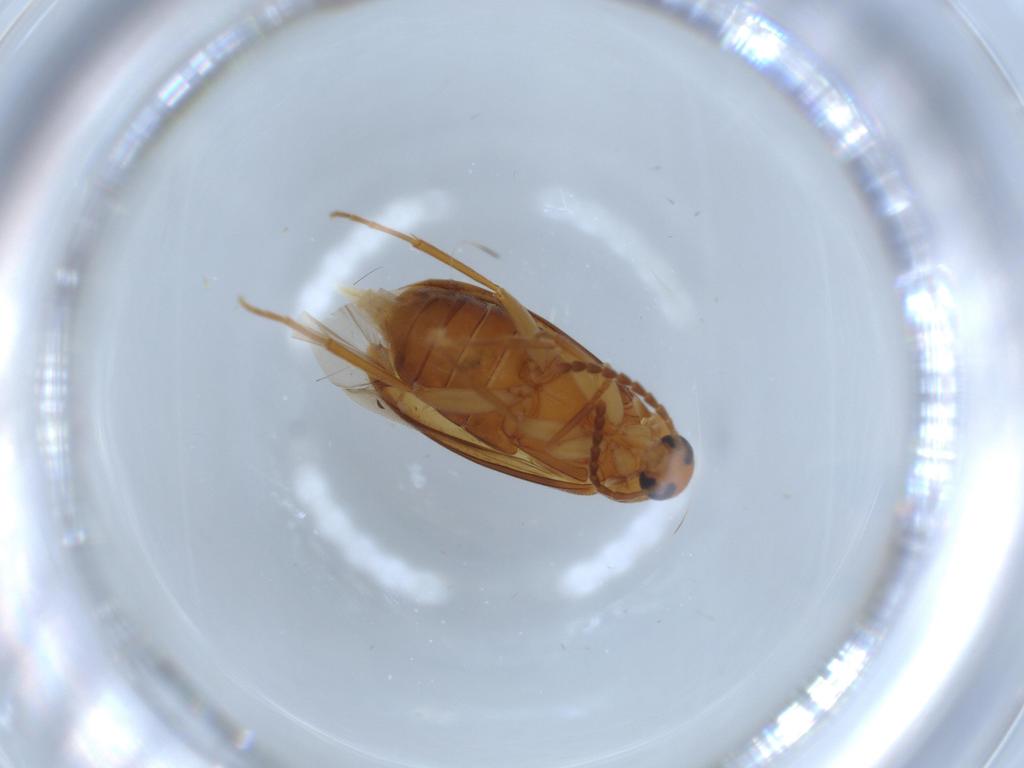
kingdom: Animalia
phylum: Arthropoda
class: Insecta
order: Coleoptera
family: Scraptiidae
